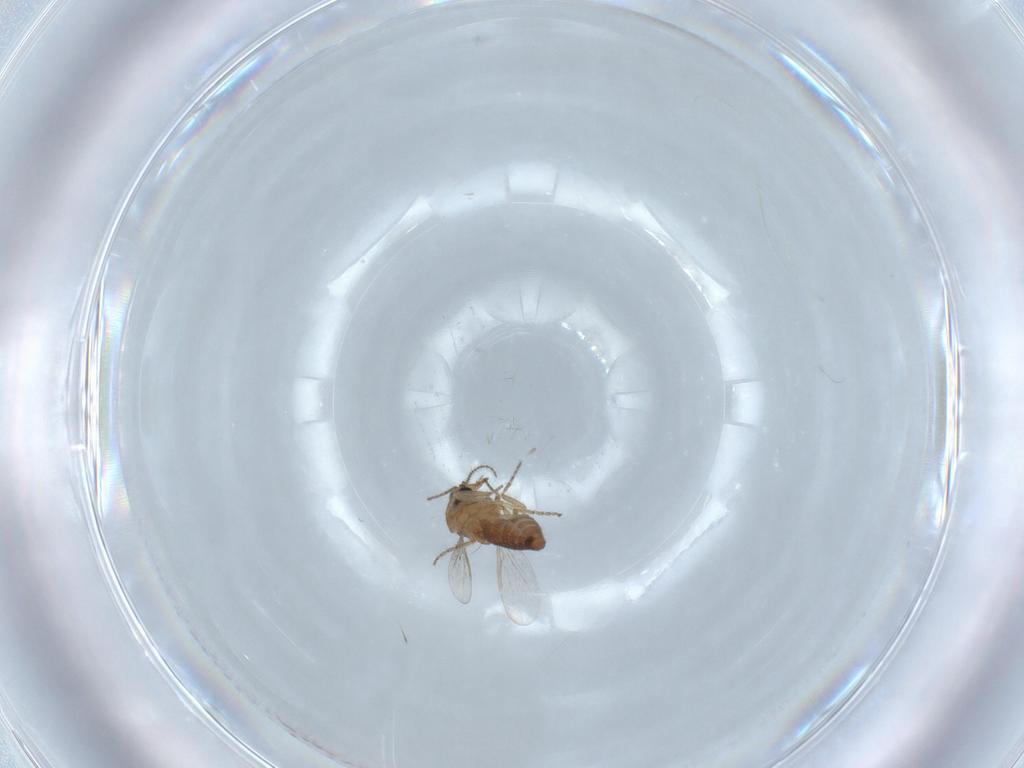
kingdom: Animalia
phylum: Arthropoda
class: Insecta
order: Diptera
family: Ceratopogonidae
